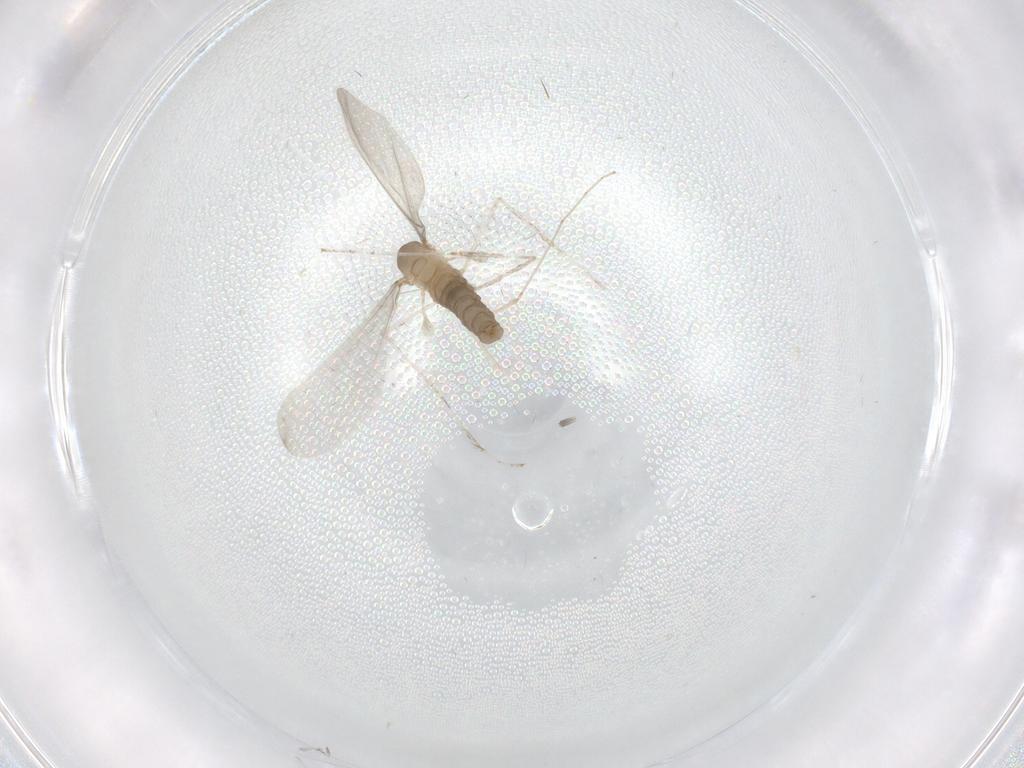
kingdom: Animalia
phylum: Arthropoda
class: Insecta
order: Diptera
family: Cecidomyiidae
